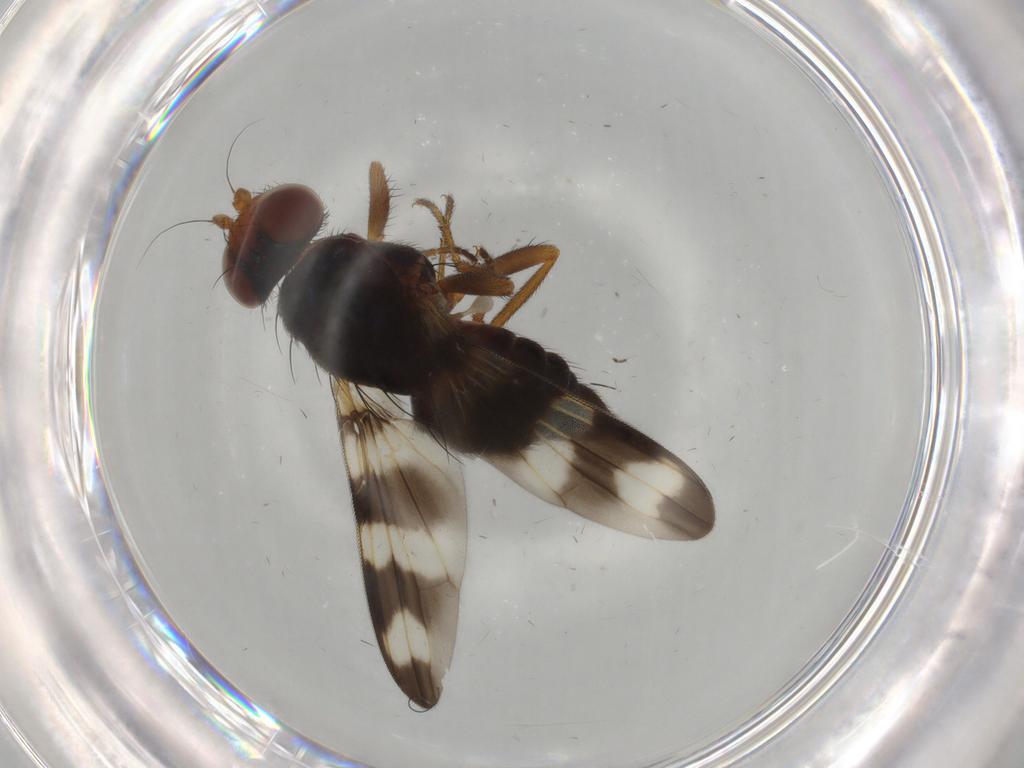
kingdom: Animalia
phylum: Arthropoda
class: Insecta
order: Diptera
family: Ulidiidae
